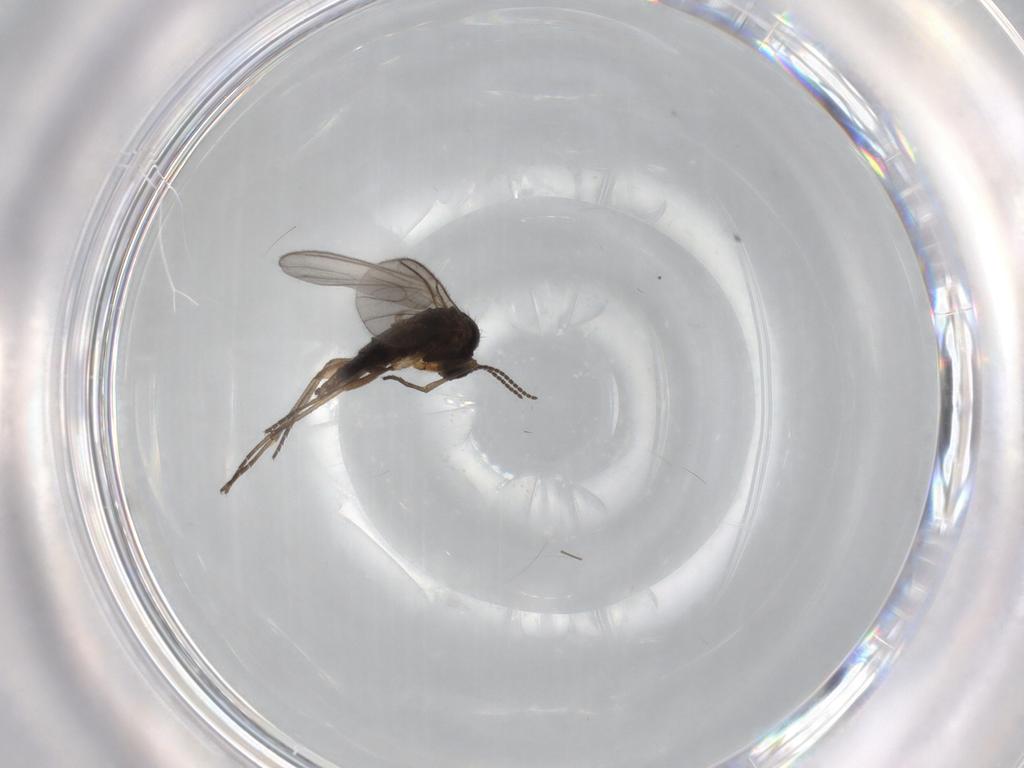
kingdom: Animalia
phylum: Arthropoda
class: Insecta
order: Diptera
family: Sciaridae
